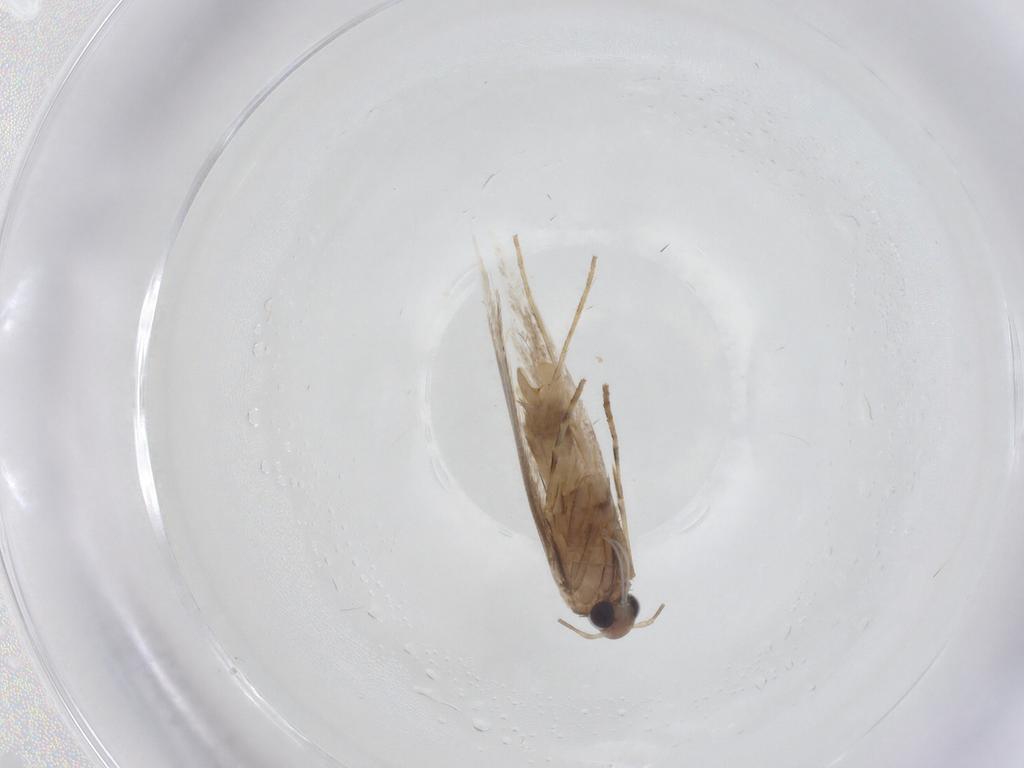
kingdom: Animalia
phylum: Arthropoda
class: Insecta
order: Lepidoptera
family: Gracillariidae
